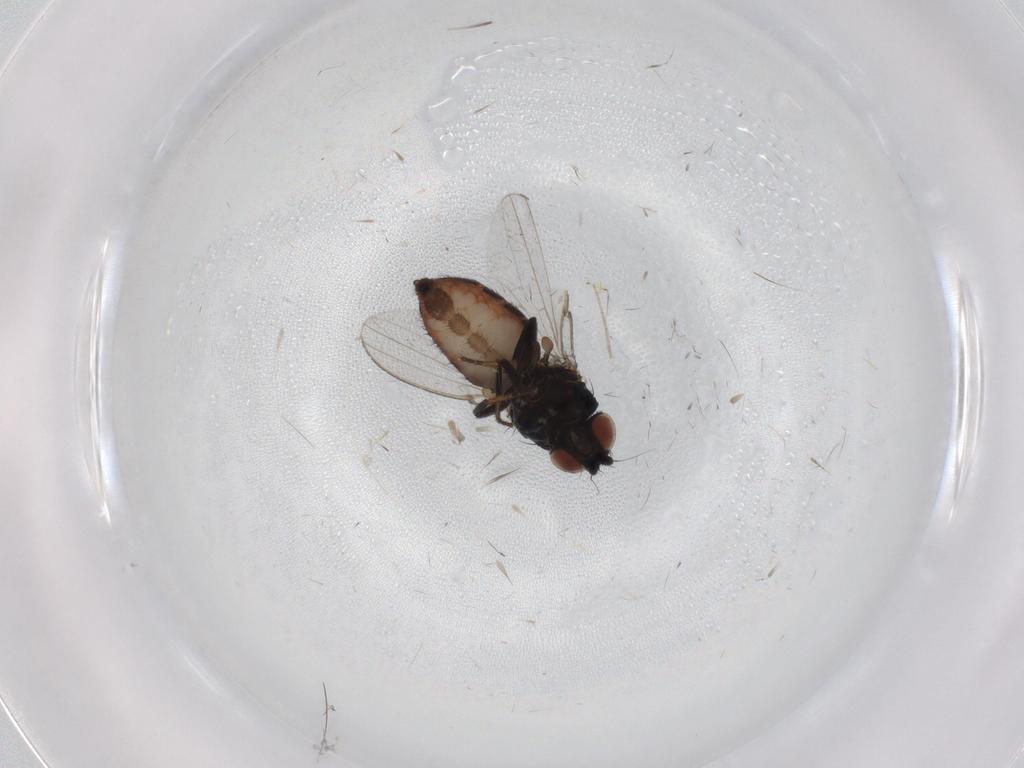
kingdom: Animalia
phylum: Arthropoda
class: Insecta
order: Diptera
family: Milichiidae
